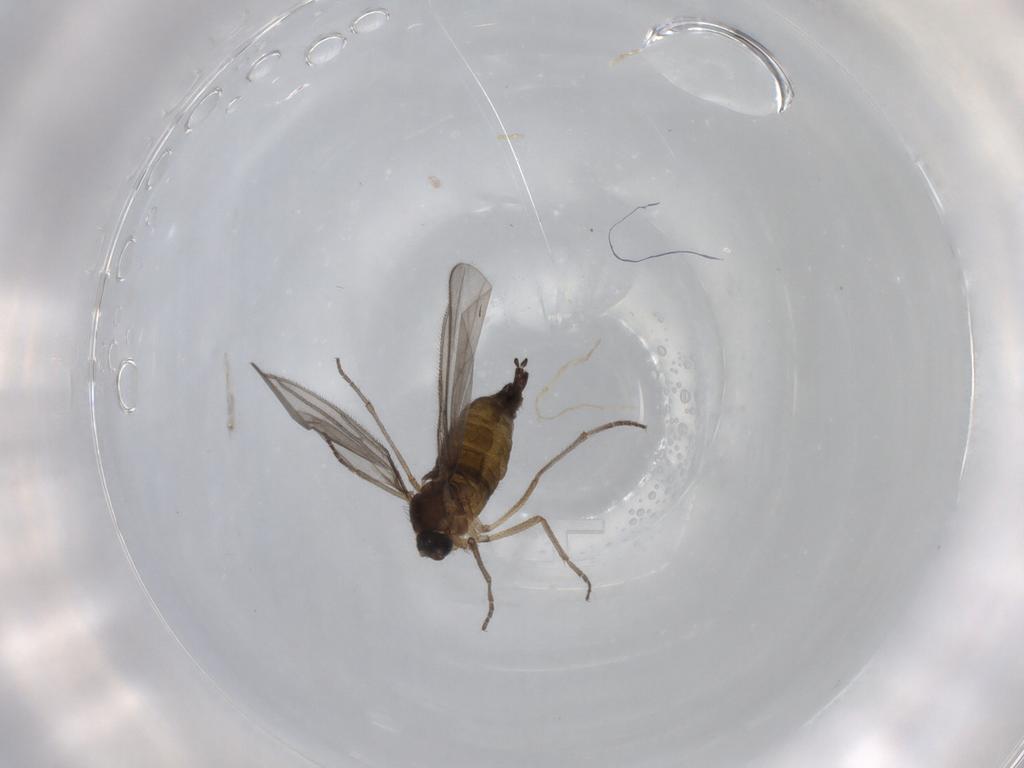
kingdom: Animalia
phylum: Arthropoda
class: Insecta
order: Diptera
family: Sciaridae
